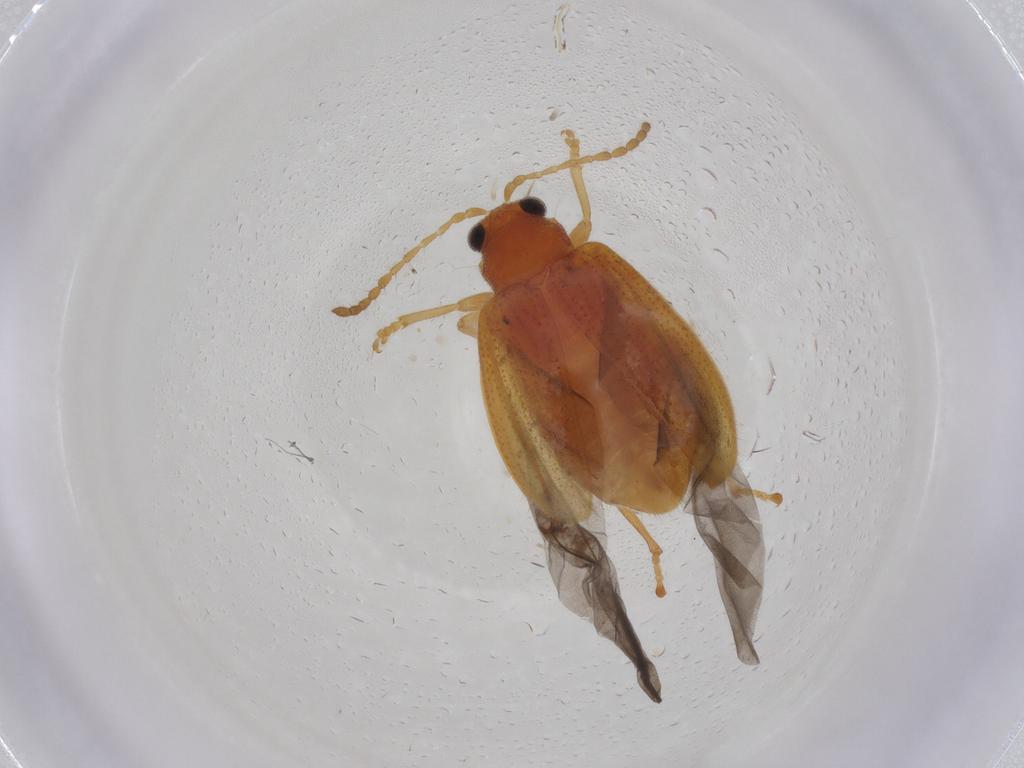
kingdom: Animalia
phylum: Arthropoda
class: Insecta
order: Coleoptera
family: Chrysomelidae
